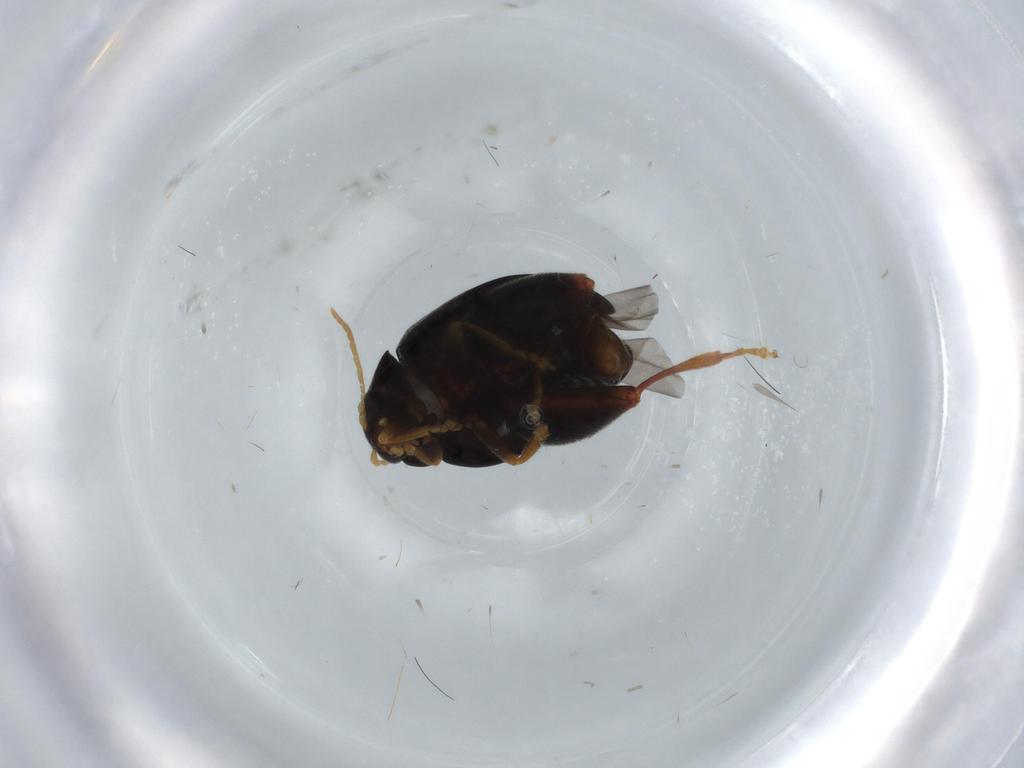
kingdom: Animalia
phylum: Arthropoda
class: Insecta
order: Coleoptera
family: Chrysomelidae
